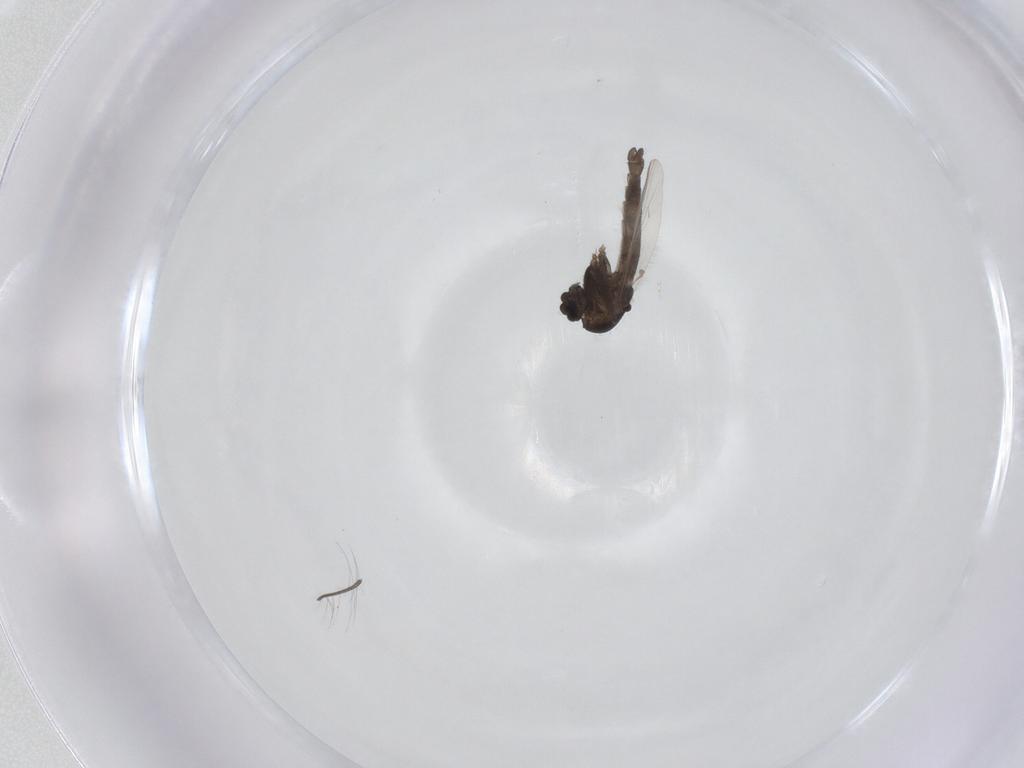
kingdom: Animalia
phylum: Arthropoda
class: Insecta
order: Diptera
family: Chironomidae
